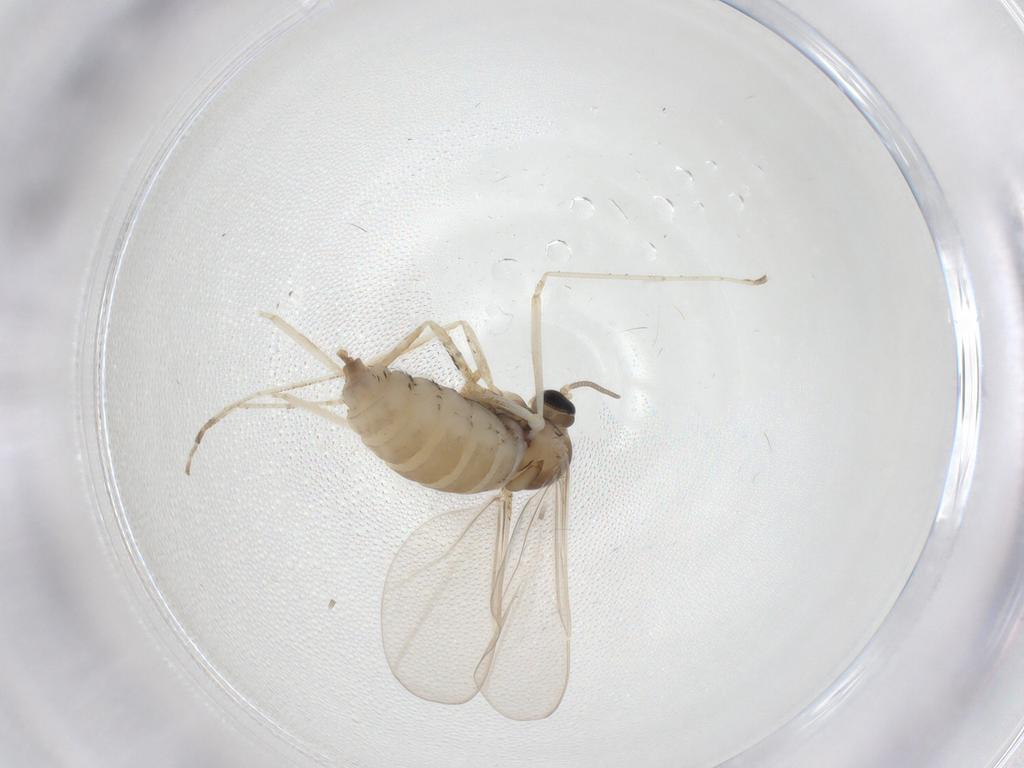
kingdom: Animalia
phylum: Arthropoda
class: Insecta
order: Diptera
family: Cecidomyiidae
